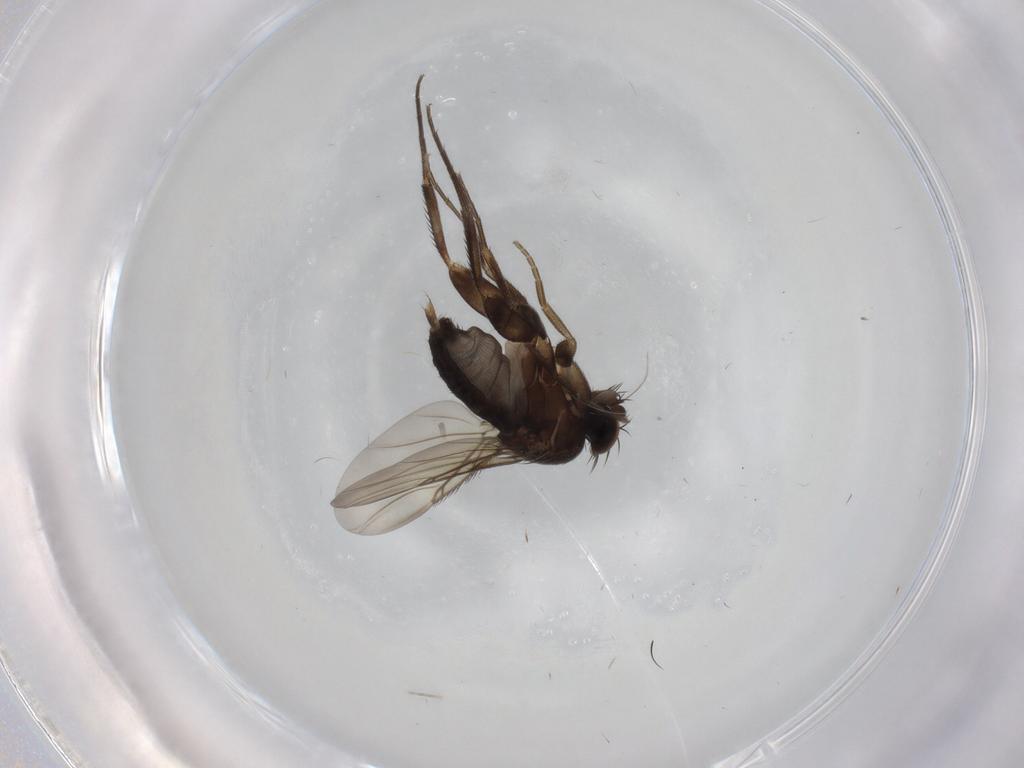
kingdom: Animalia
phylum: Arthropoda
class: Insecta
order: Diptera
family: Phoridae
